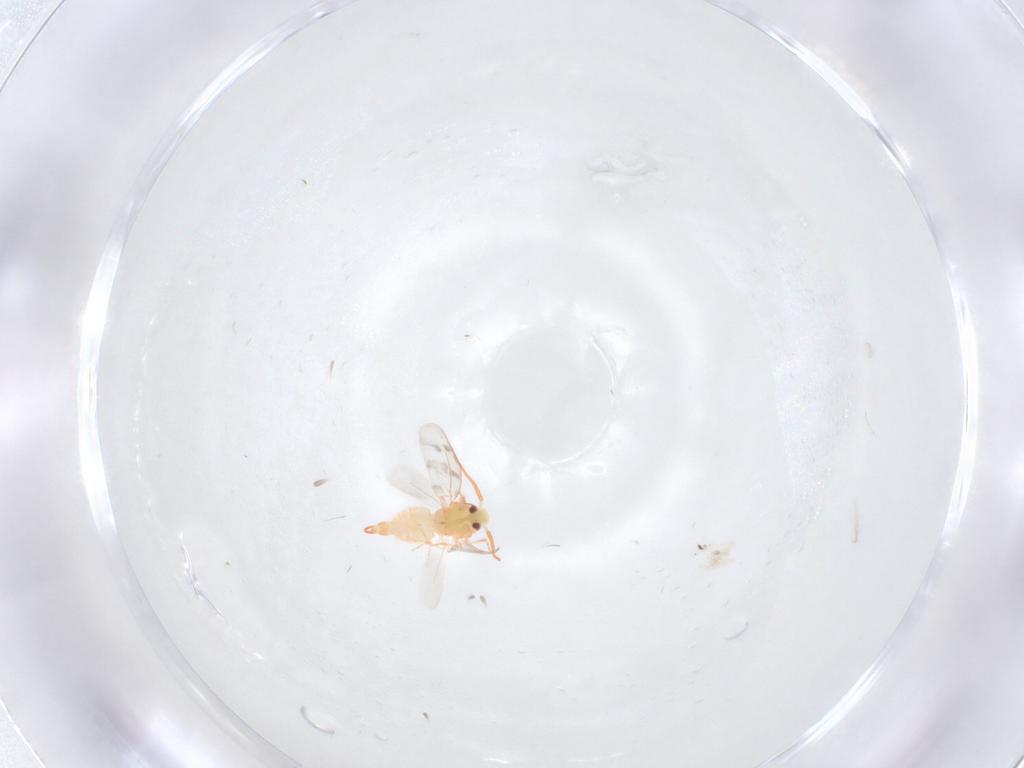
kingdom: Animalia
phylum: Arthropoda
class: Insecta
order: Hemiptera
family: Aleyrodidae
